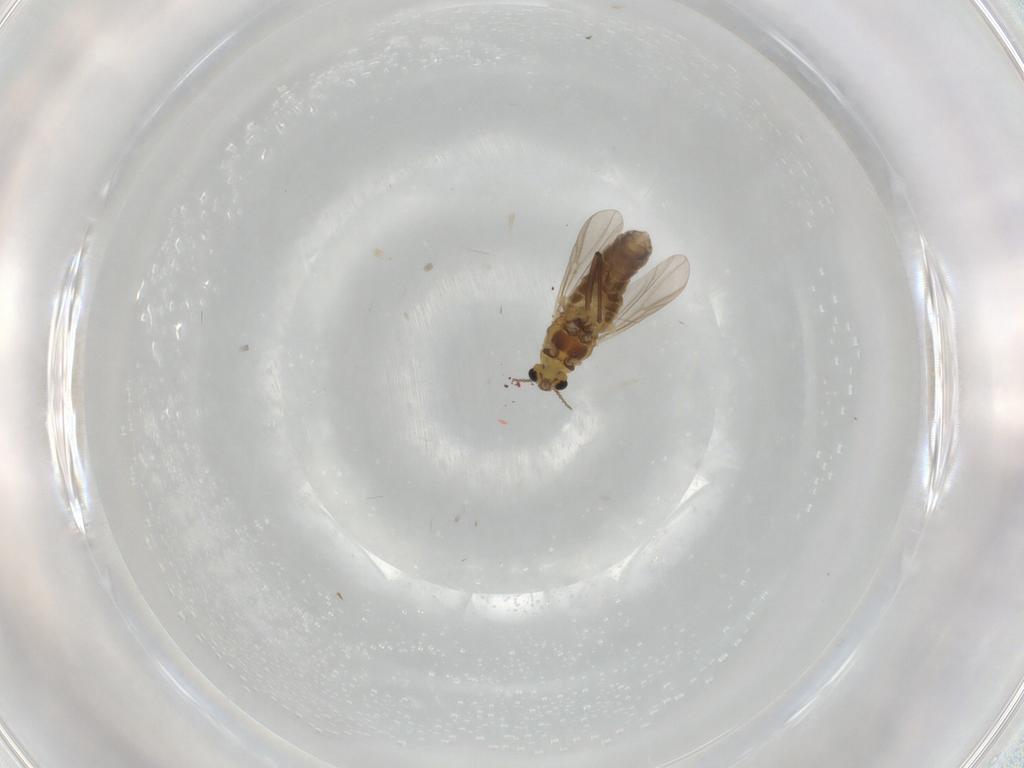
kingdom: Animalia
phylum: Arthropoda
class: Insecta
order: Diptera
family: Chironomidae
